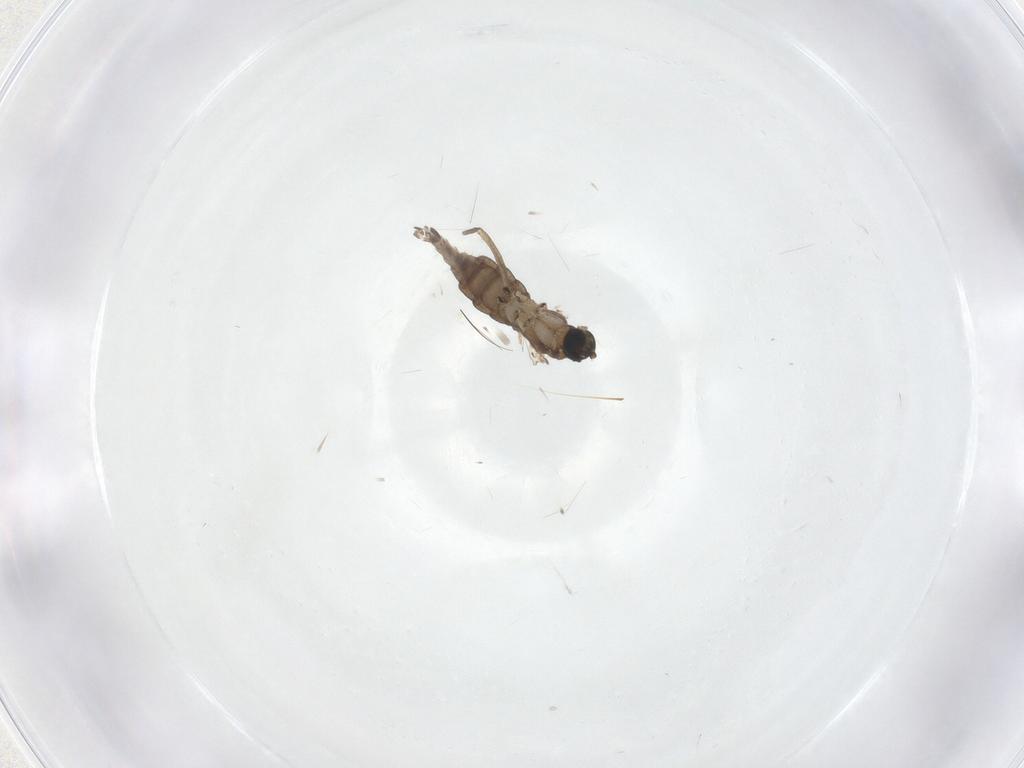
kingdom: Animalia
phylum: Arthropoda
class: Insecta
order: Diptera
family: Sciaridae
